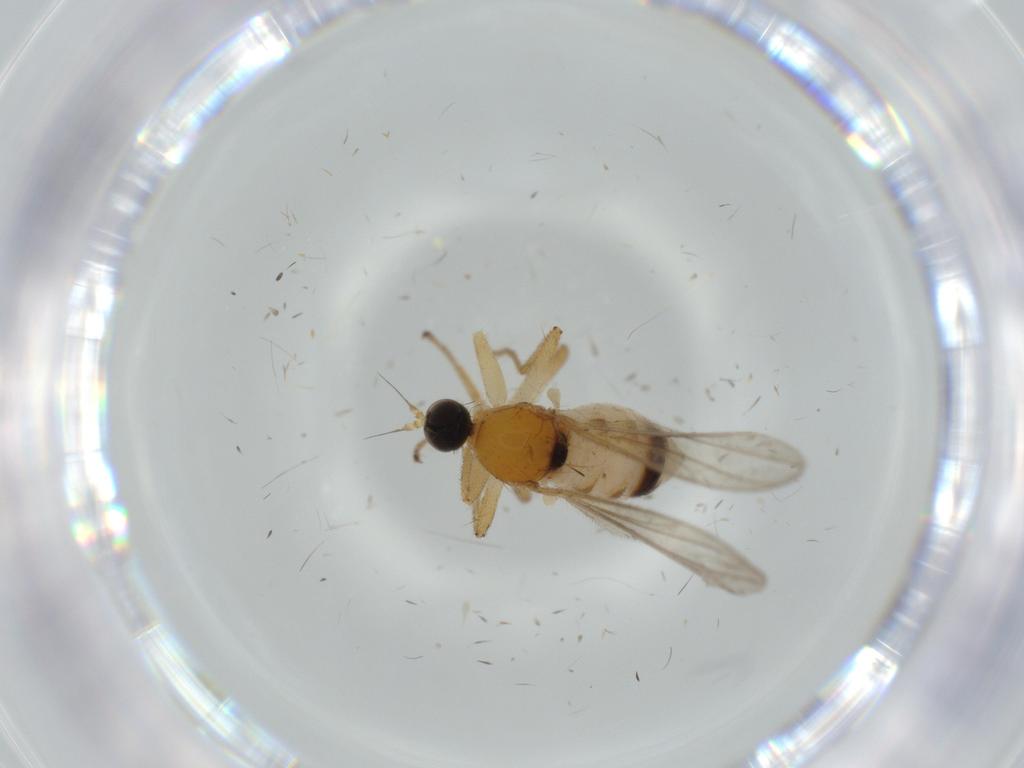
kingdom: Animalia
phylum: Arthropoda
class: Insecta
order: Diptera
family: Hybotidae
